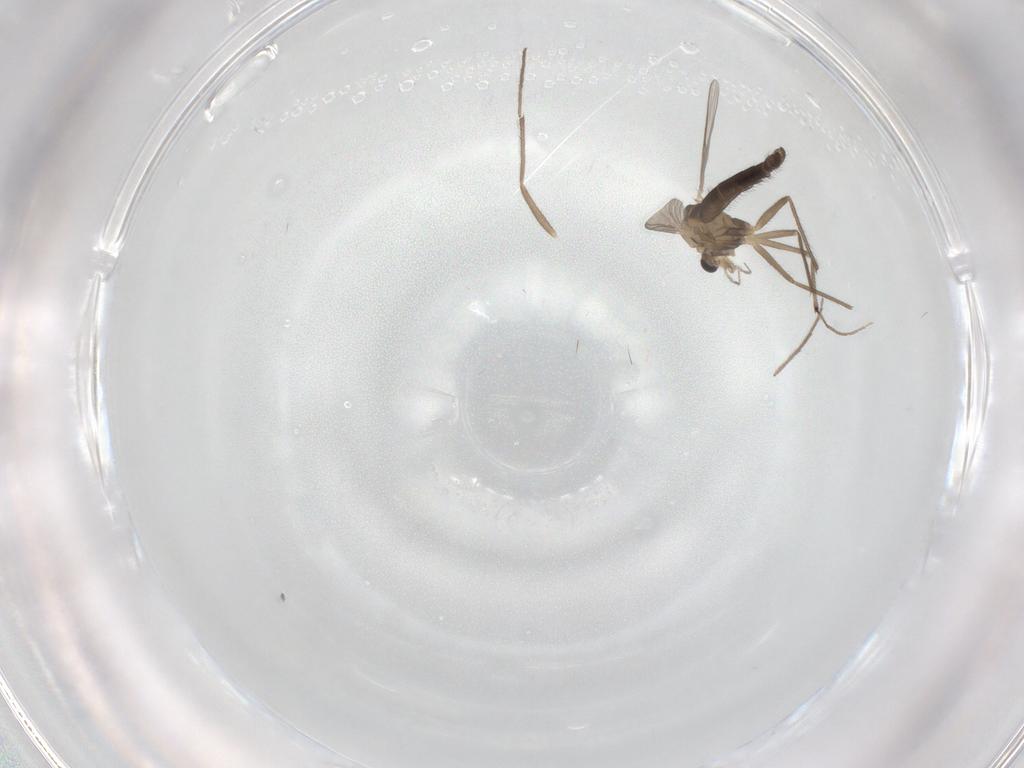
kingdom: Animalia
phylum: Arthropoda
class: Insecta
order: Diptera
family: Chironomidae
